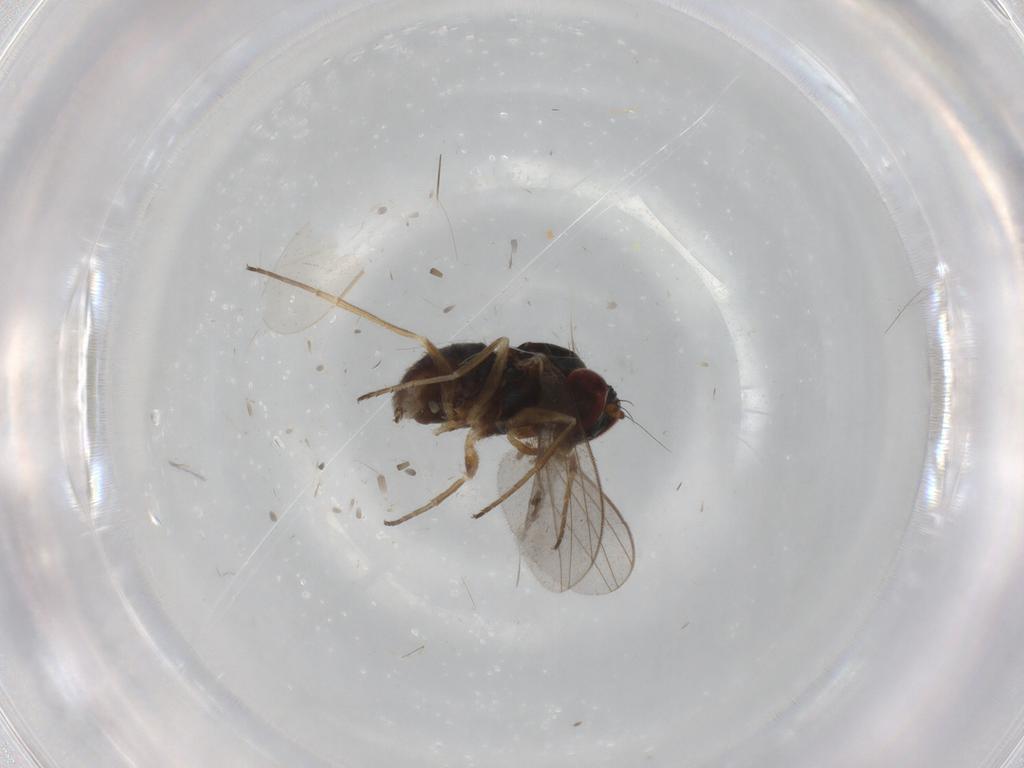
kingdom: Animalia
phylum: Arthropoda
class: Insecta
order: Diptera
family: Dolichopodidae
